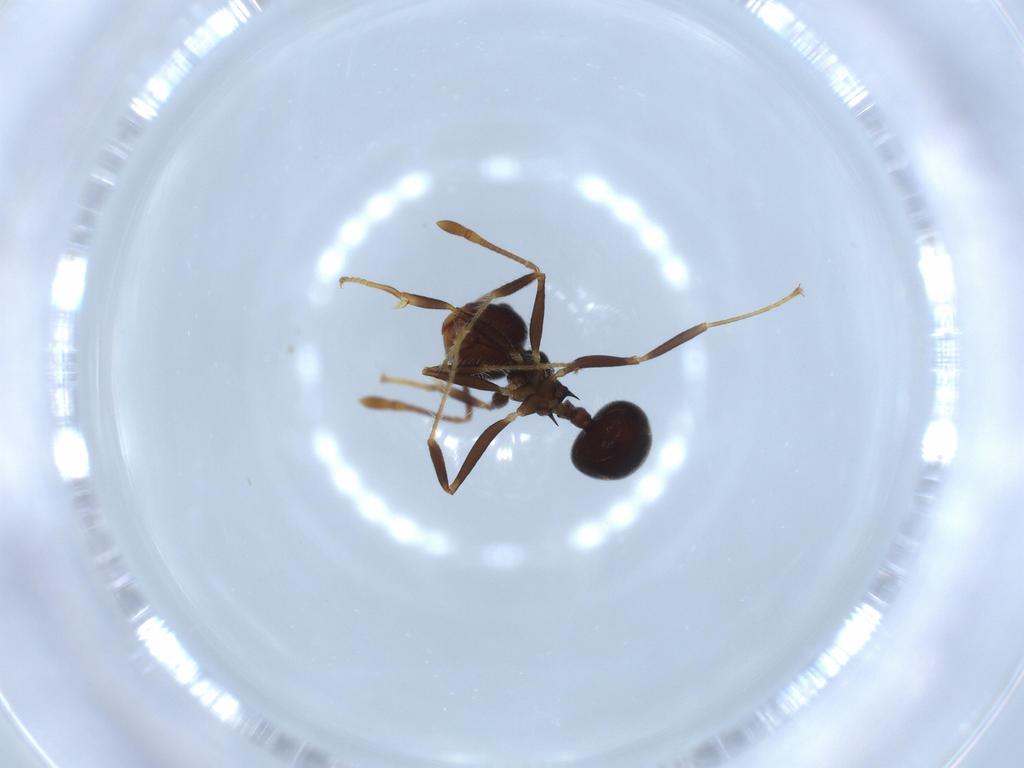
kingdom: Animalia
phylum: Arthropoda
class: Insecta
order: Hymenoptera
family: Formicidae
